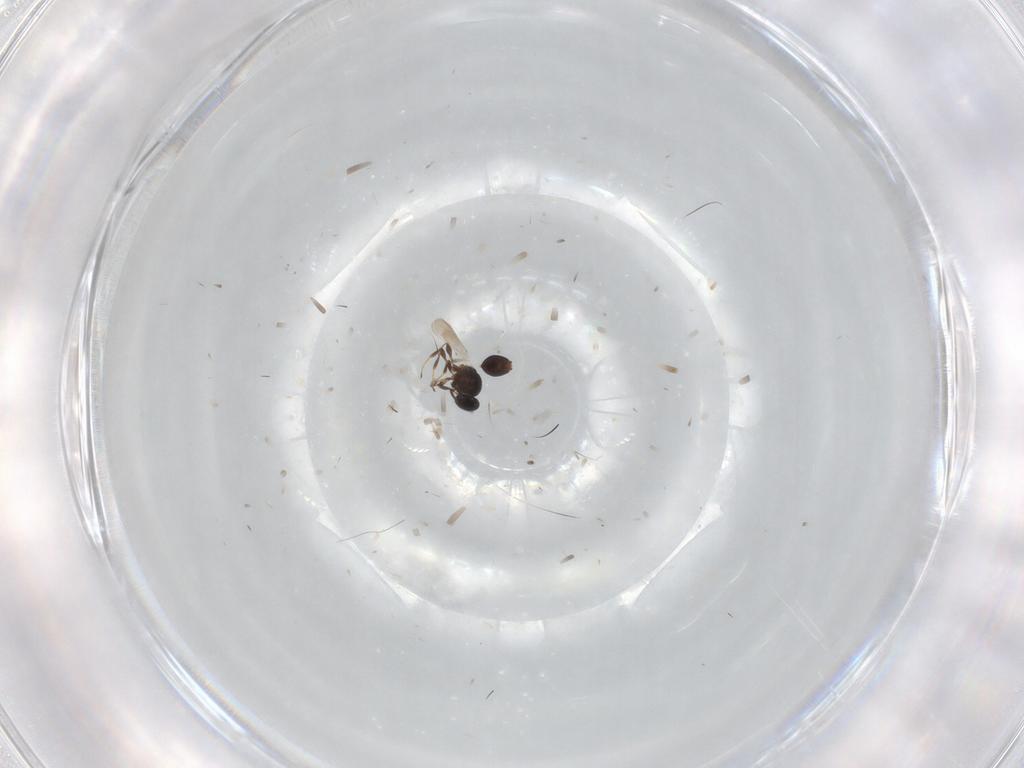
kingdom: Animalia
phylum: Arthropoda
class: Insecta
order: Hymenoptera
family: Platygastridae
